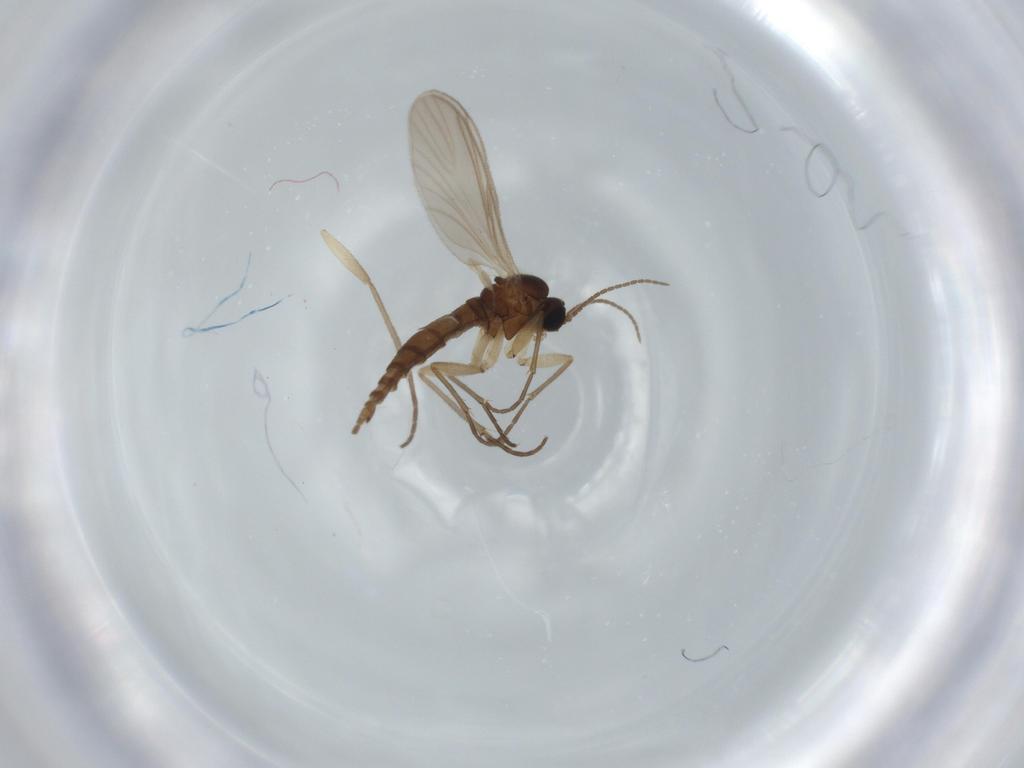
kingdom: Animalia
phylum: Arthropoda
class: Insecta
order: Diptera
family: Sciaridae
